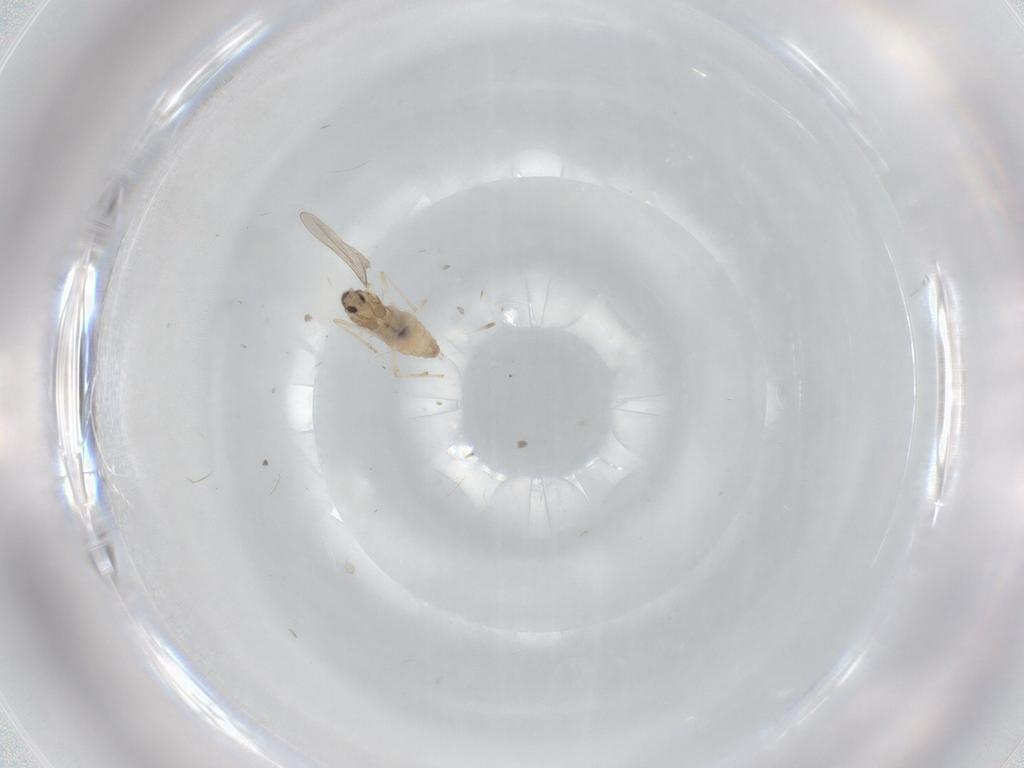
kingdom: Animalia
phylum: Arthropoda
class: Insecta
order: Diptera
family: Cecidomyiidae
